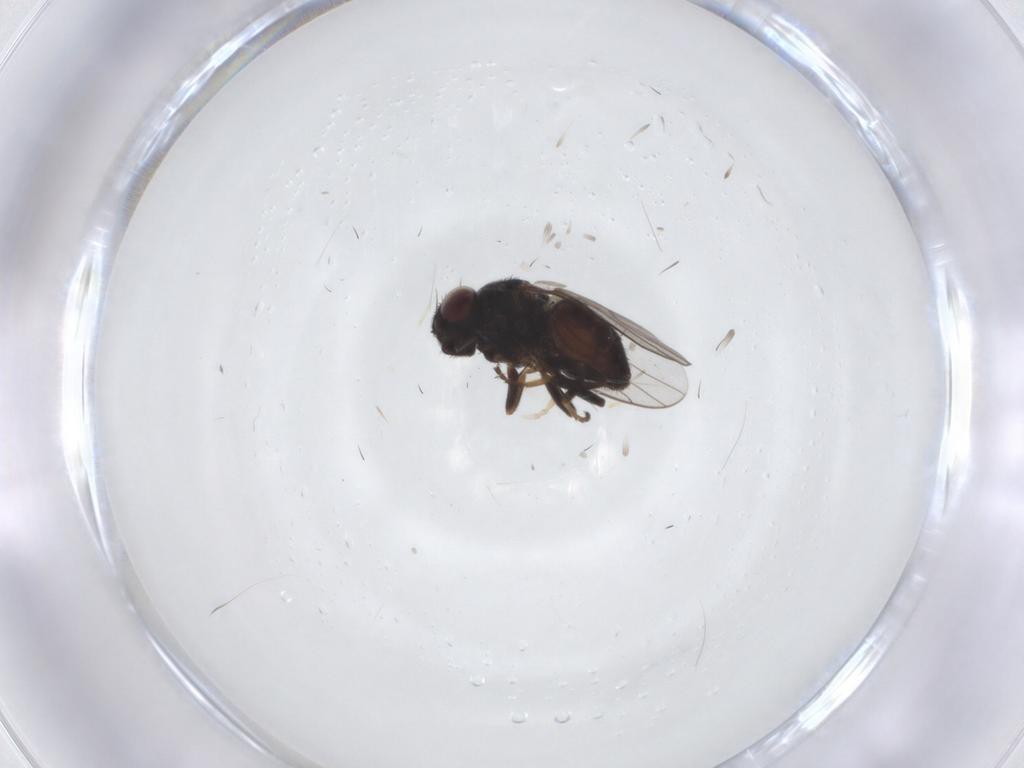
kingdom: Animalia
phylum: Arthropoda
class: Insecta
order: Diptera
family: Chloropidae
